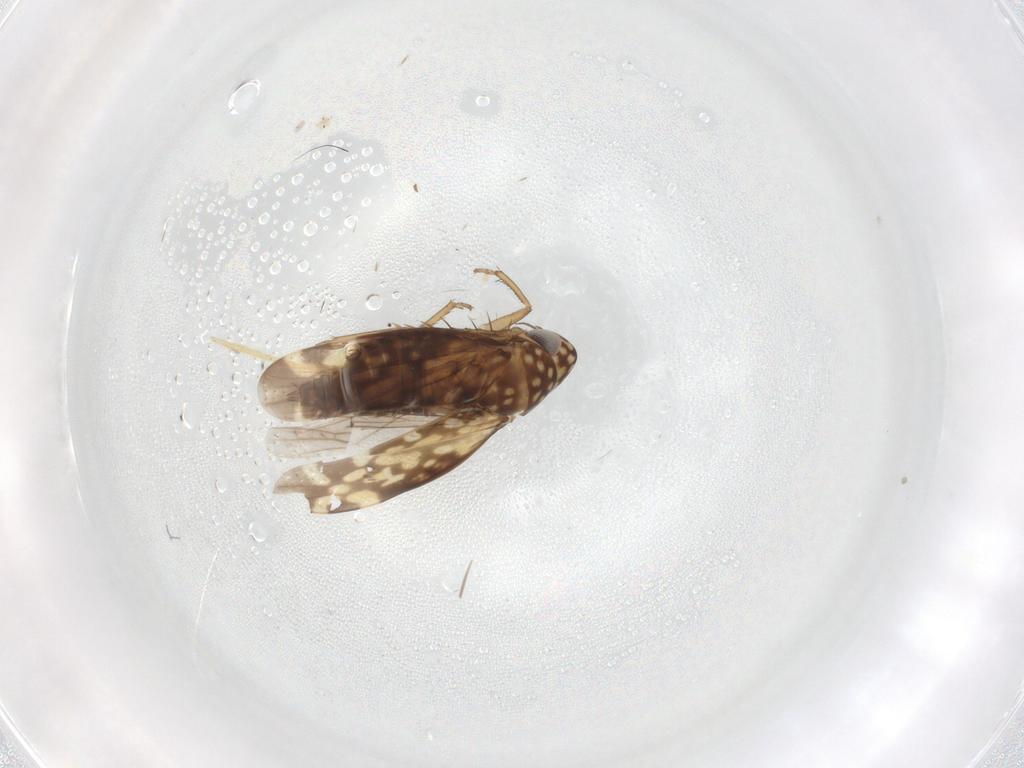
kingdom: Animalia
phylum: Arthropoda
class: Insecta
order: Hemiptera
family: Cicadellidae
